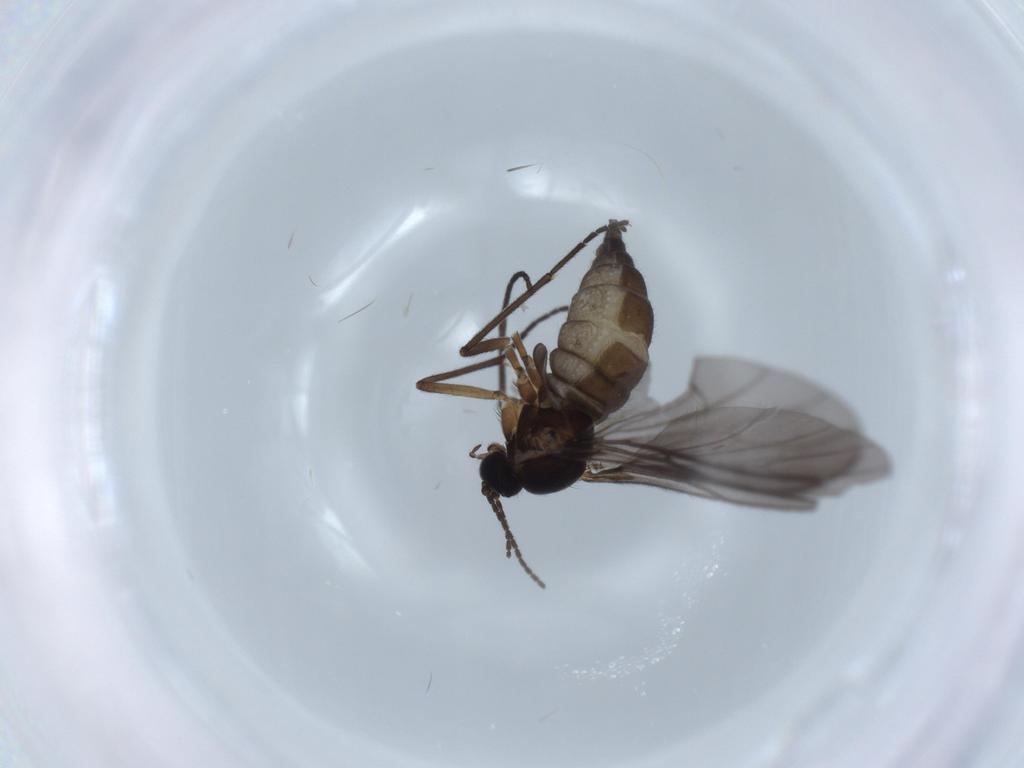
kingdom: Animalia
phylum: Arthropoda
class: Insecta
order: Diptera
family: Sciaridae
